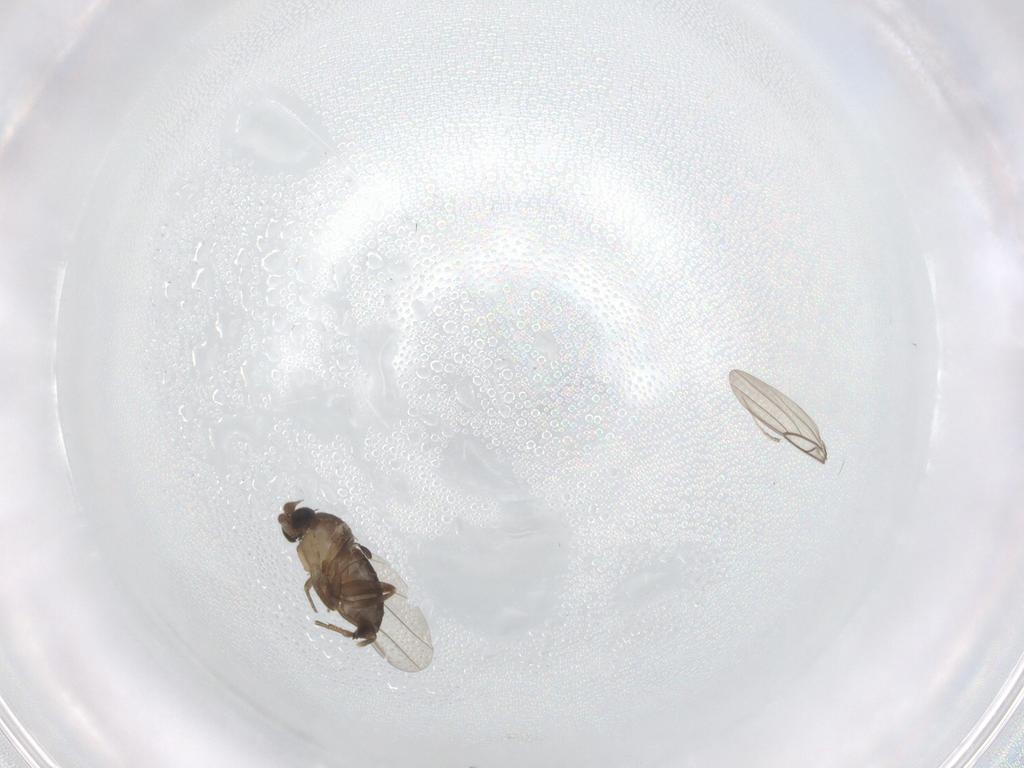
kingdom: Animalia
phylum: Arthropoda
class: Insecta
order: Diptera
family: Phoridae
